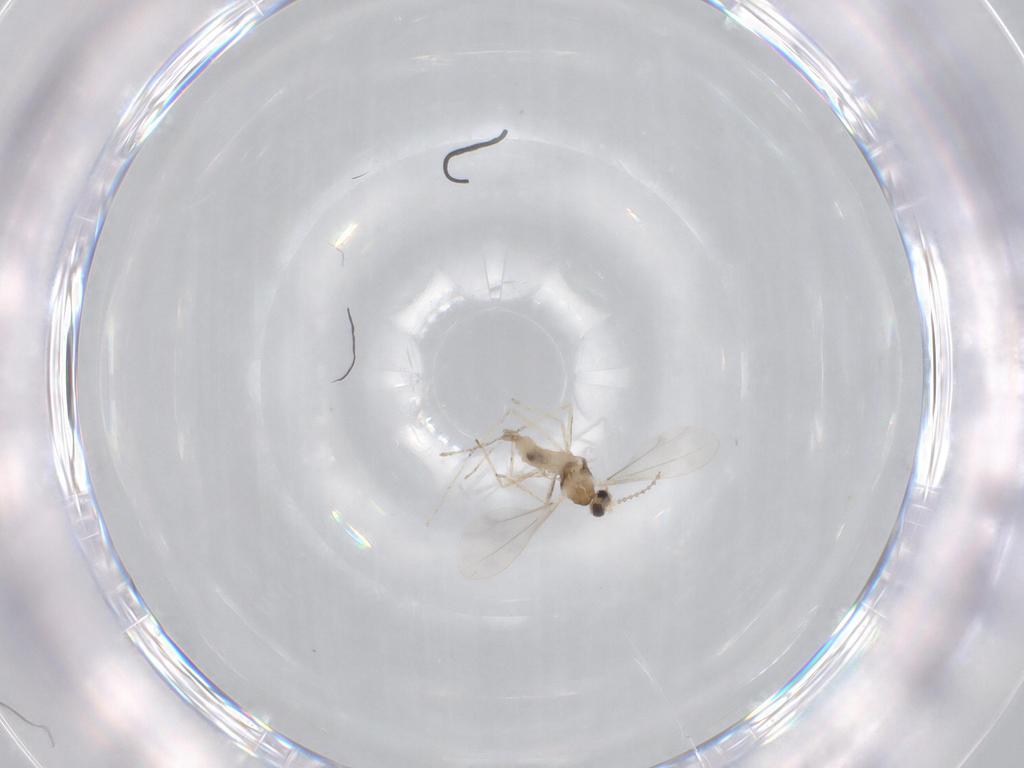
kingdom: Animalia
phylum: Arthropoda
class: Insecta
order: Diptera
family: Cecidomyiidae
